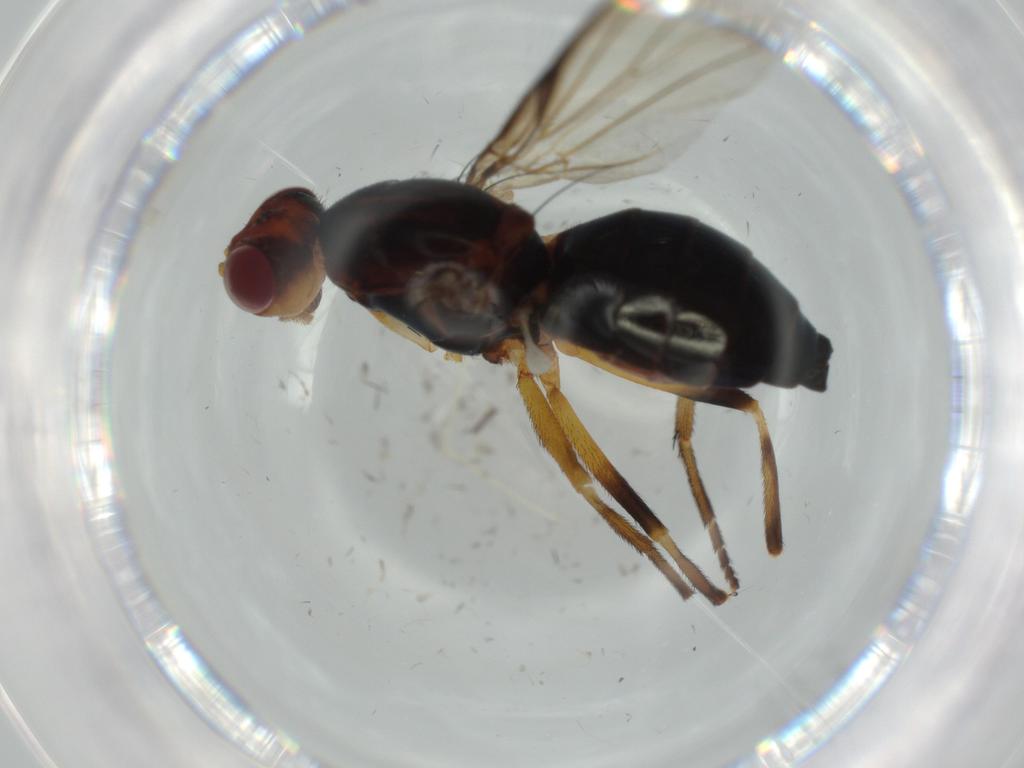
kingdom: Animalia
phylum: Arthropoda
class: Insecta
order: Diptera
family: Piophilidae
